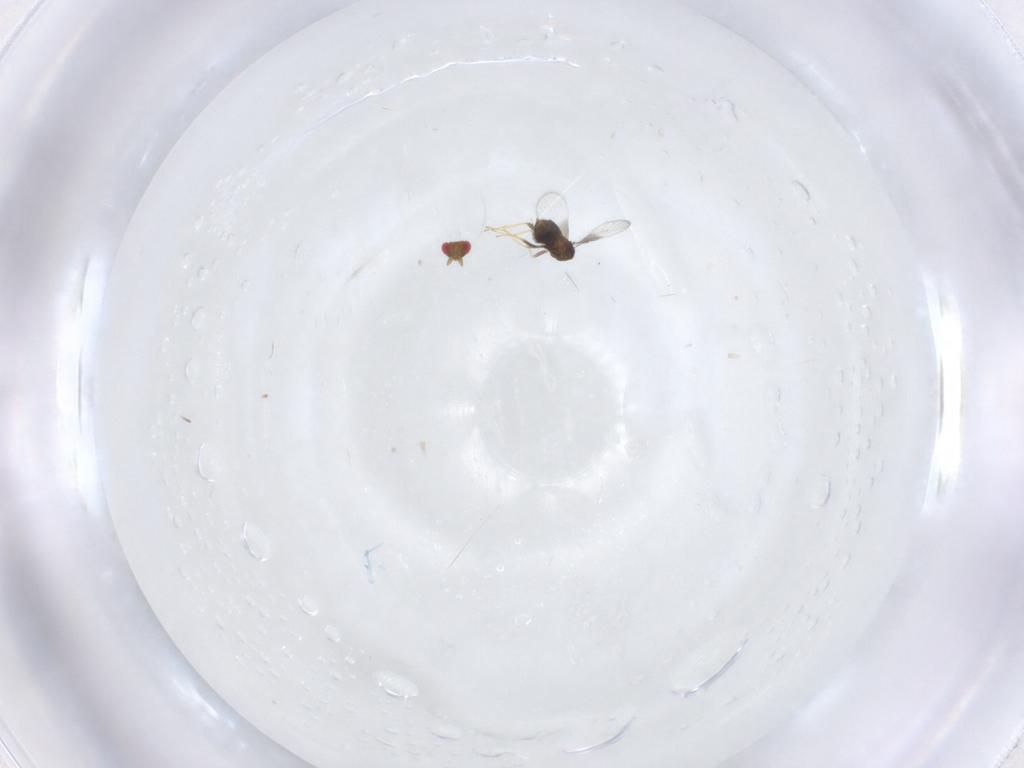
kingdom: Animalia
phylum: Arthropoda
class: Insecta
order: Hymenoptera
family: Trichogrammatidae
